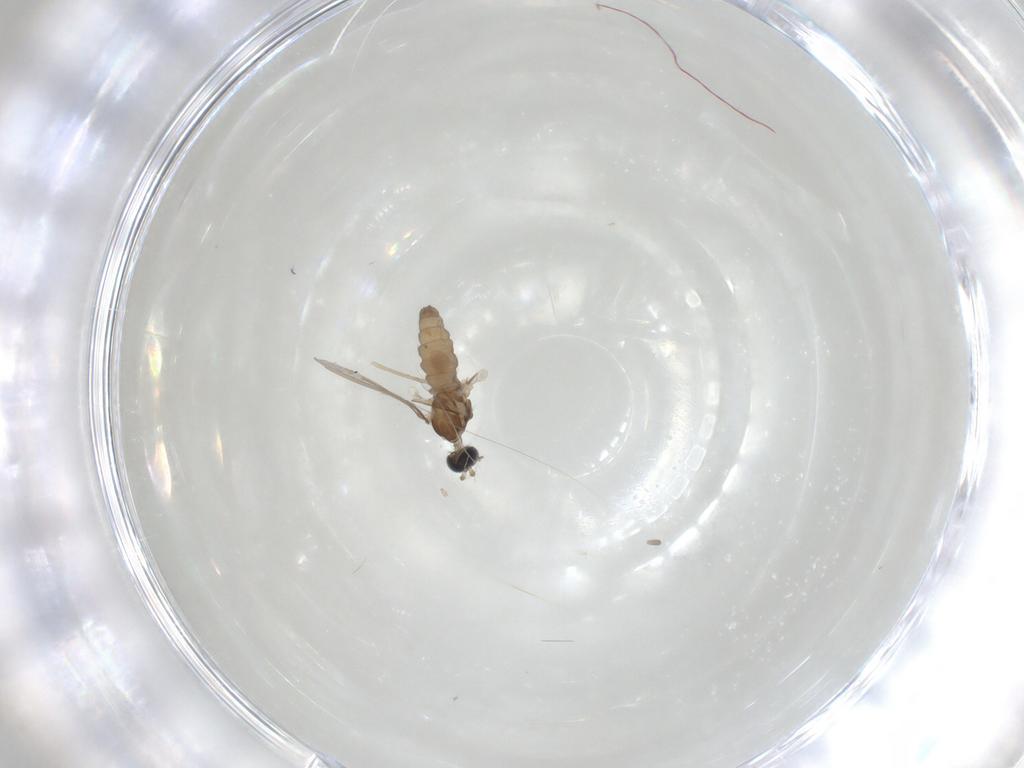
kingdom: Animalia
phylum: Arthropoda
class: Insecta
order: Diptera
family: Cecidomyiidae
